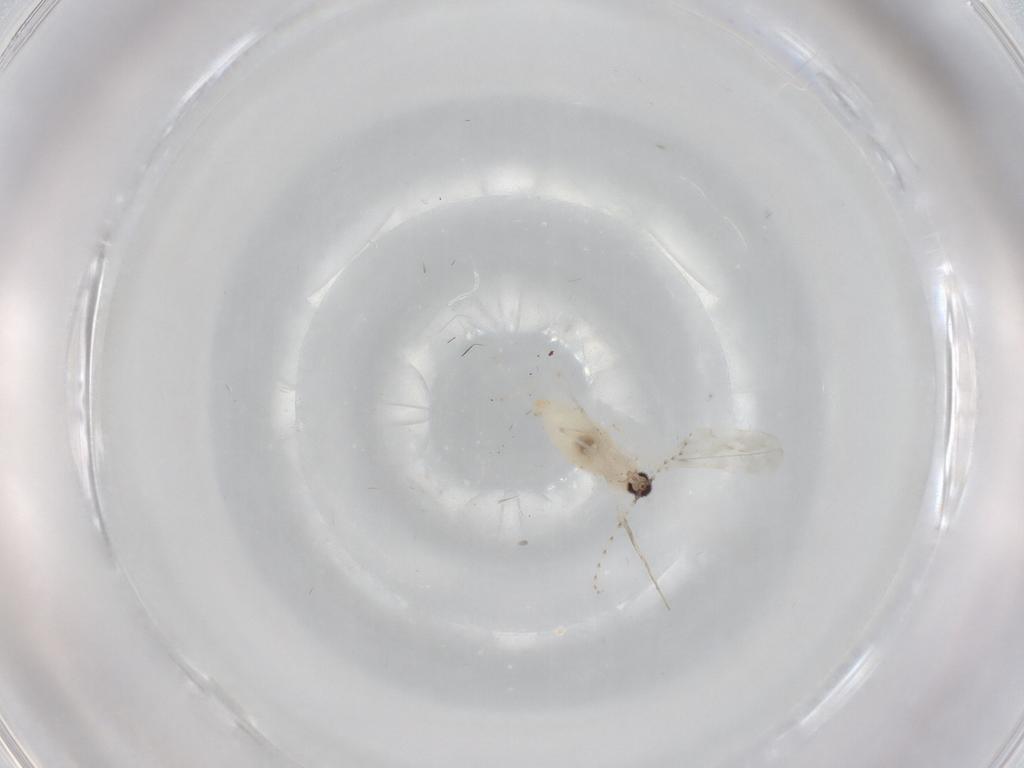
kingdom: Animalia
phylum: Arthropoda
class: Insecta
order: Diptera
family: Cecidomyiidae
